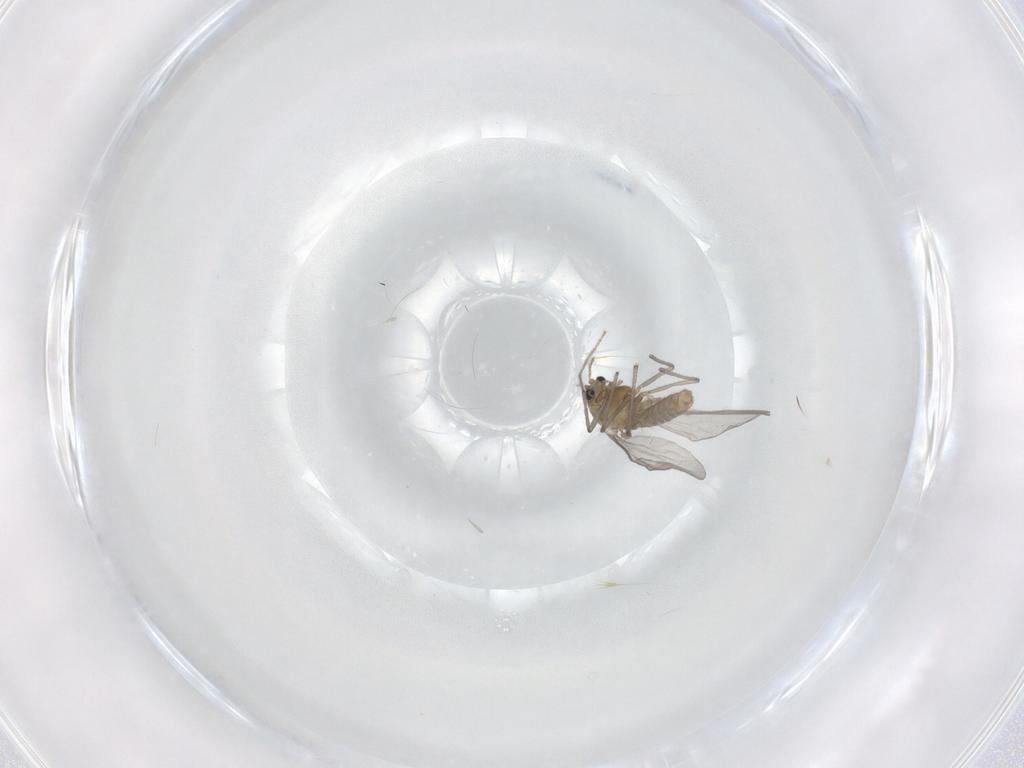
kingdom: Animalia
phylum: Arthropoda
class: Insecta
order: Diptera
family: Chironomidae
